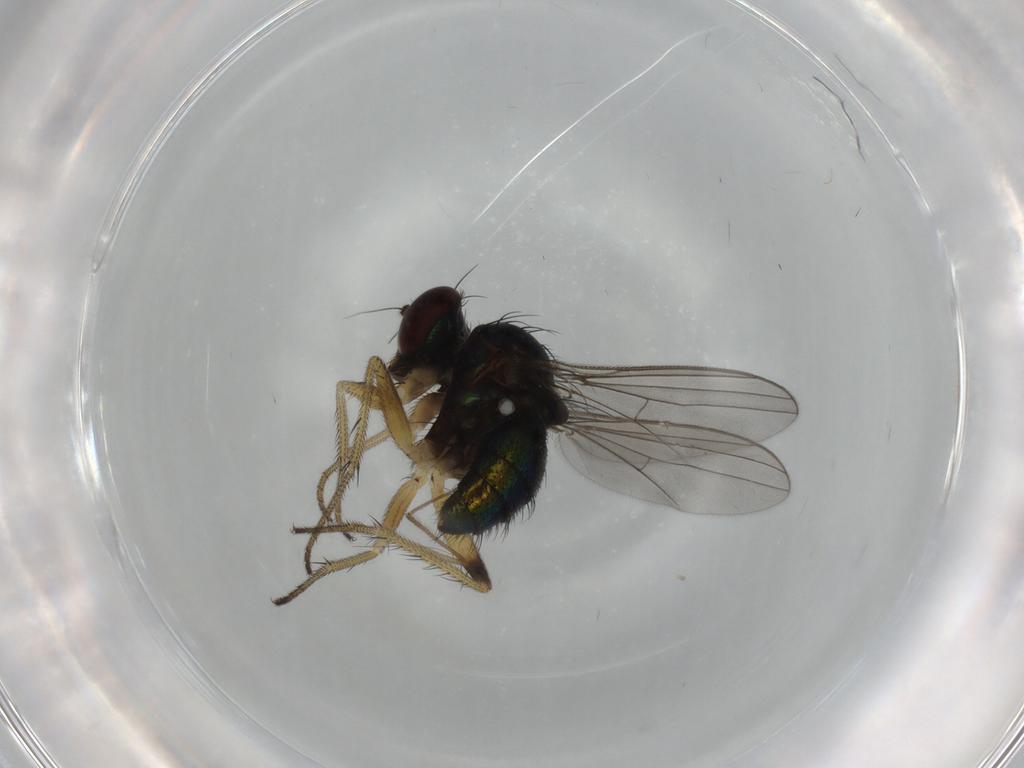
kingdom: Animalia
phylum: Arthropoda
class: Insecta
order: Diptera
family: Dolichopodidae
